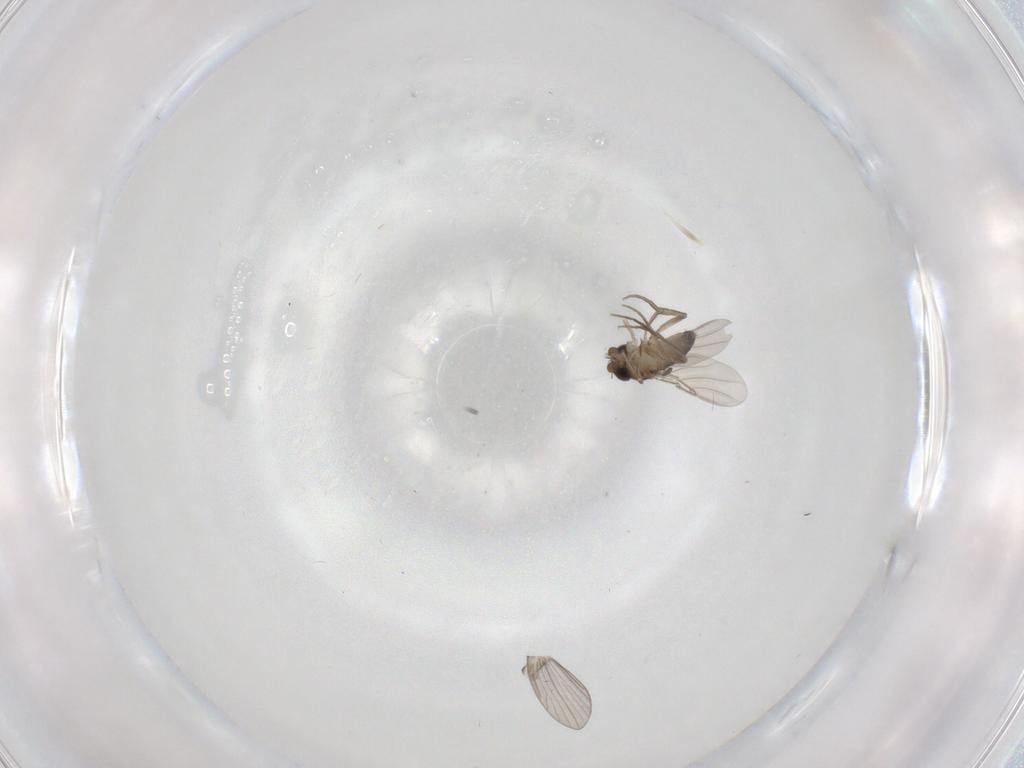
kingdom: Animalia
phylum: Arthropoda
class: Insecta
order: Diptera
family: Phoridae
